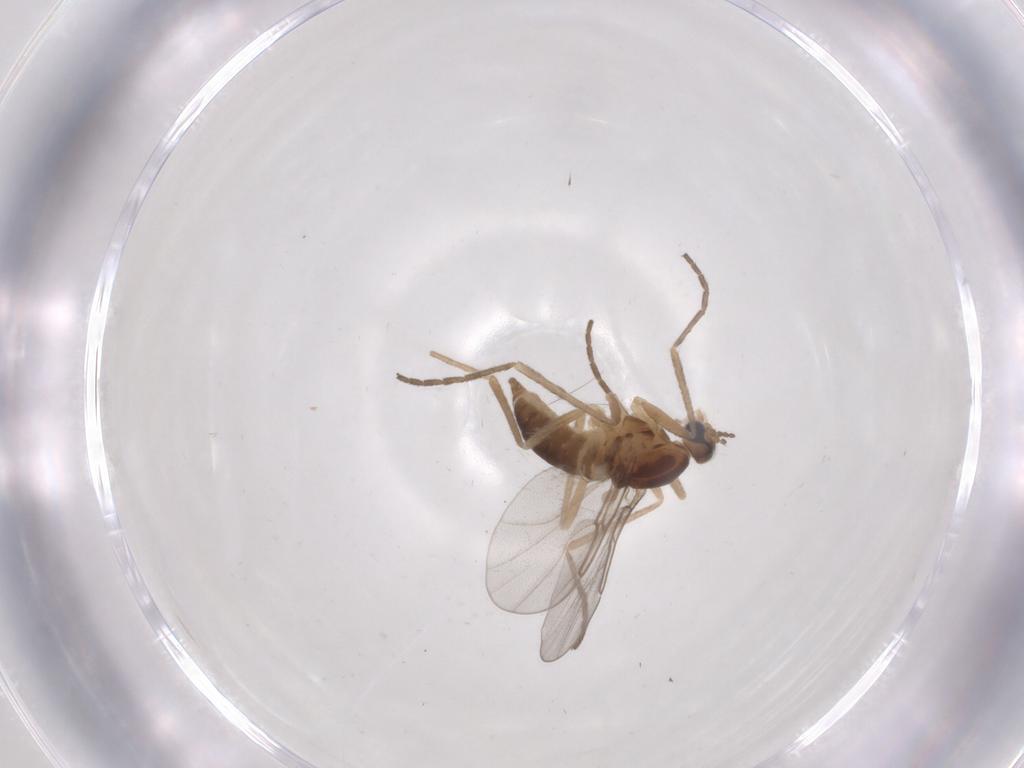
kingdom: Animalia
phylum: Arthropoda
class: Insecta
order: Diptera
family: Cecidomyiidae
